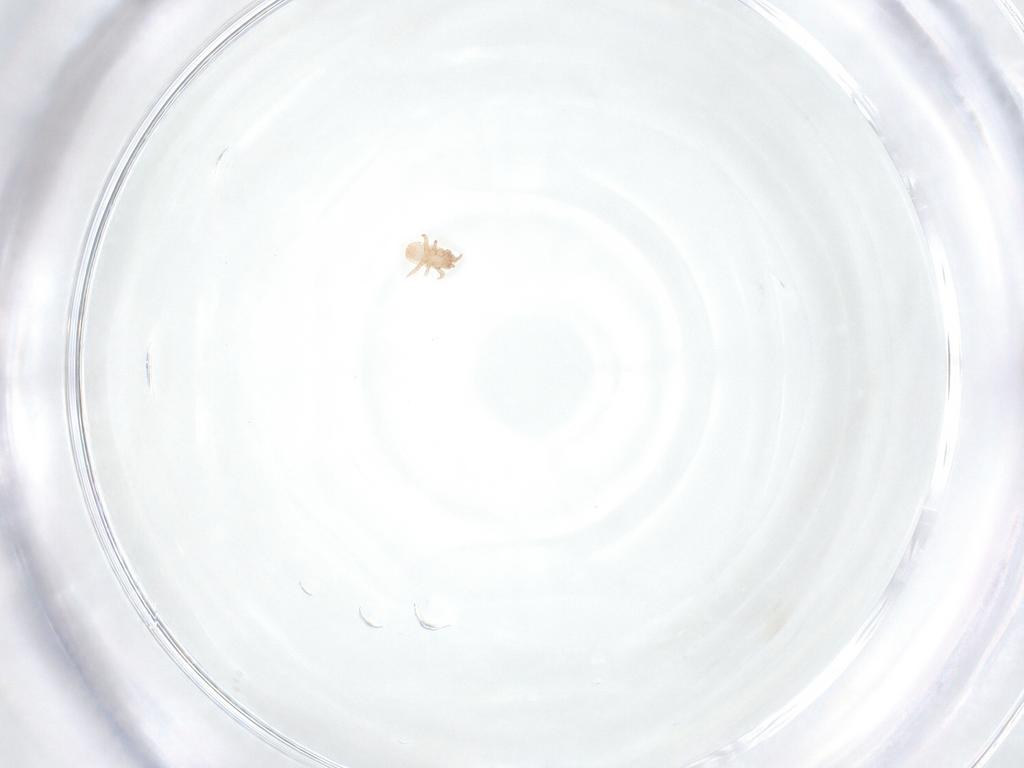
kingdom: Animalia
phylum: Arthropoda
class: Arachnida
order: Mesostigmata
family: Digamasellidae
